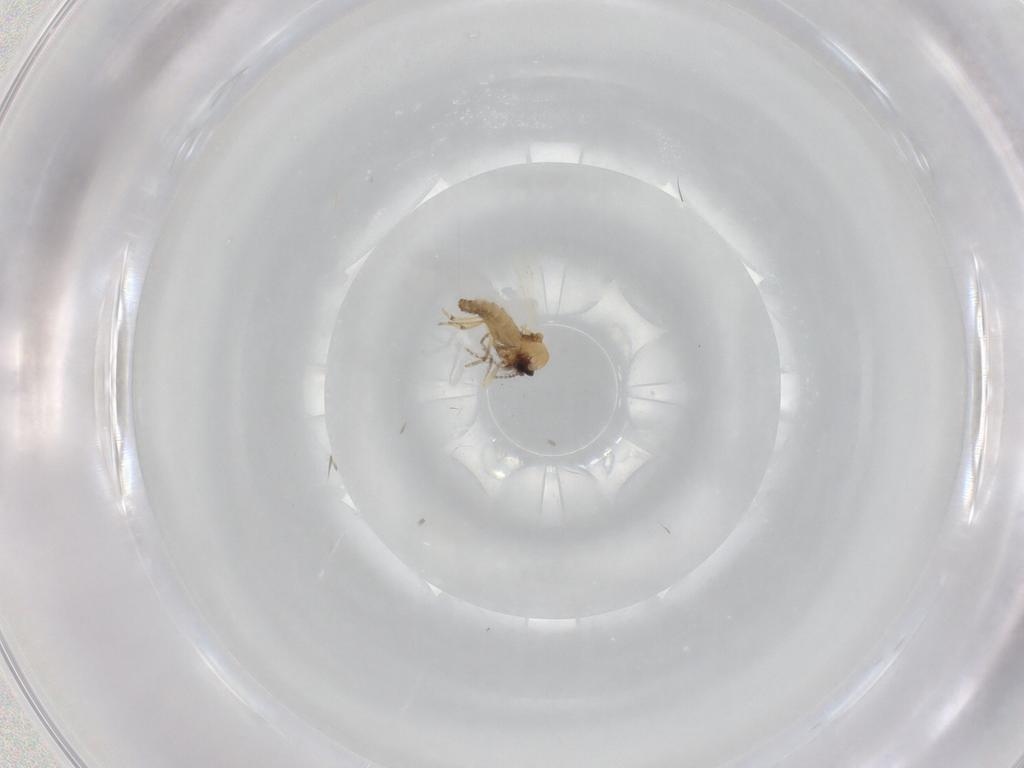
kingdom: Animalia
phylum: Arthropoda
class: Insecta
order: Diptera
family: Ceratopogonidae
